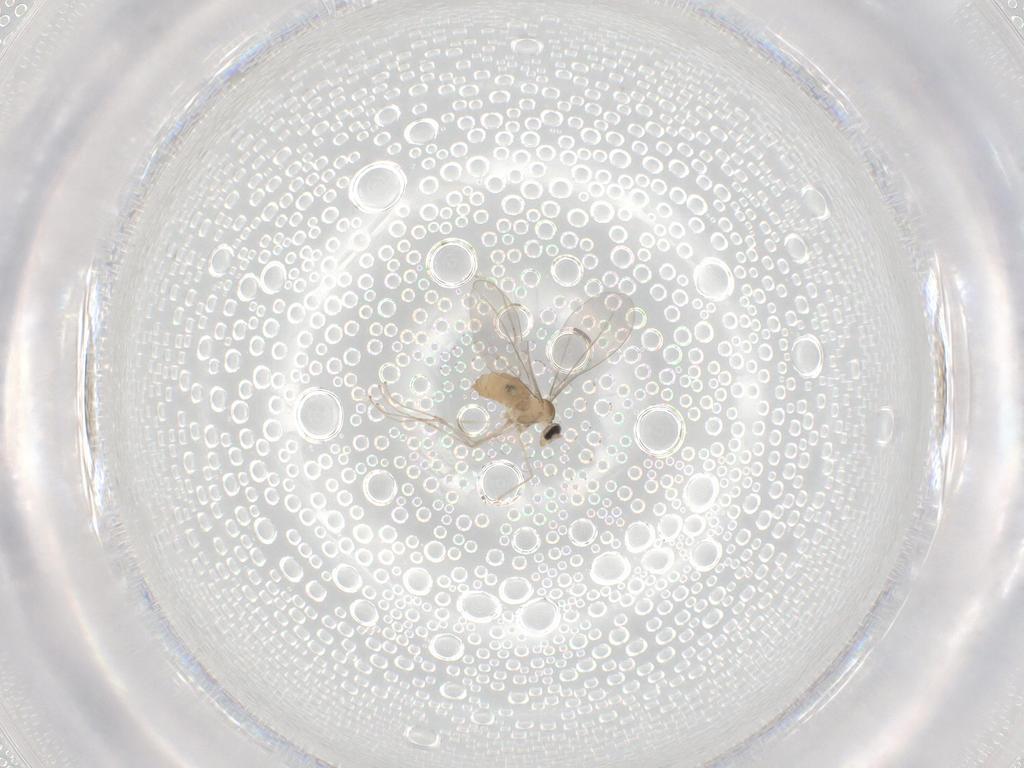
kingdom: Animalia
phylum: Arthropoda
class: Insecta
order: Diptera
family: Cecidomyiidae
